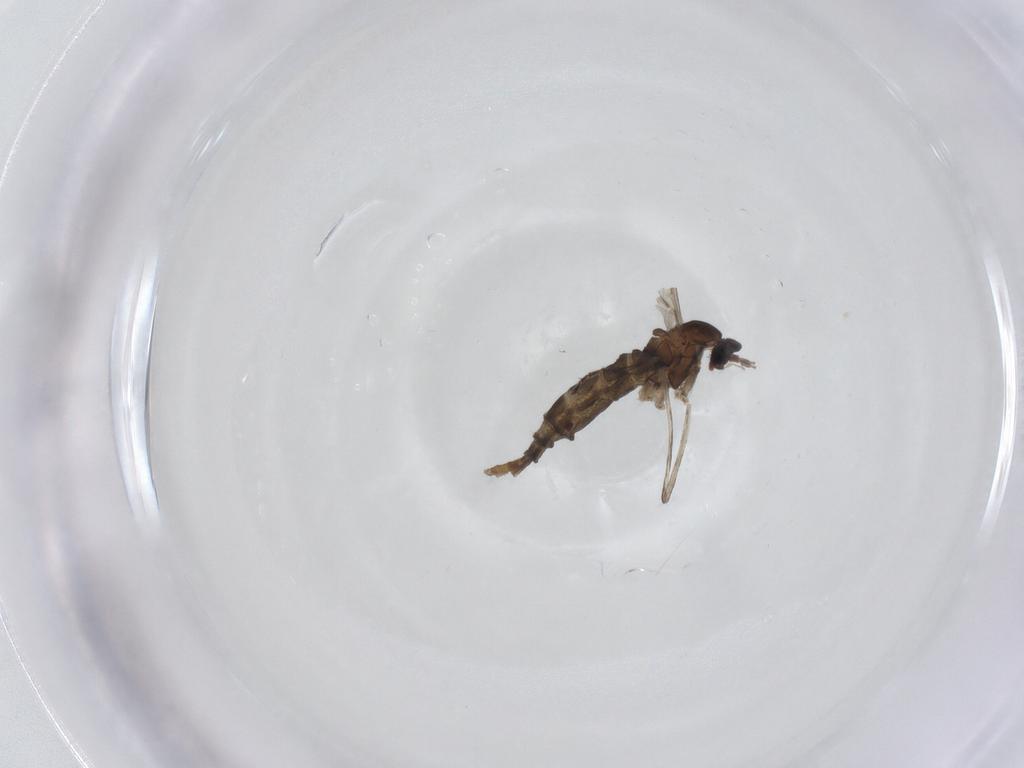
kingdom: Animalia
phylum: Arthropoda
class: Insecta
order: Diptera
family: Cecidomyiidae
